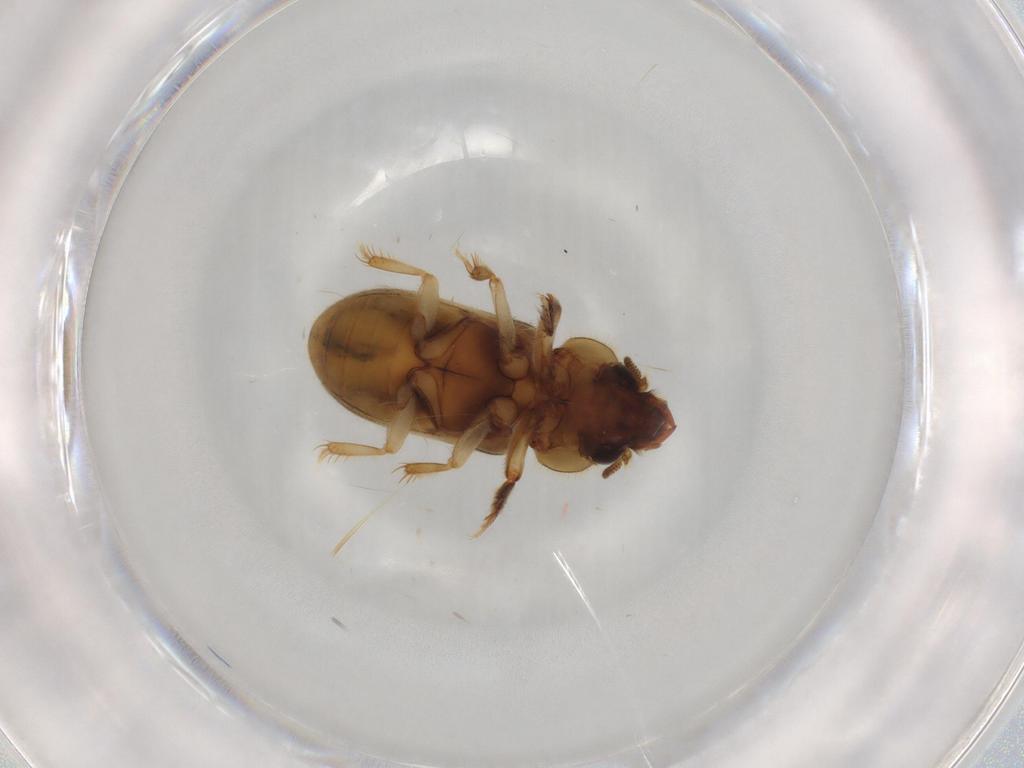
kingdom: Animalia
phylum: Arthropoda
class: Insecta
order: Coleoptera
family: Heteroceridae
